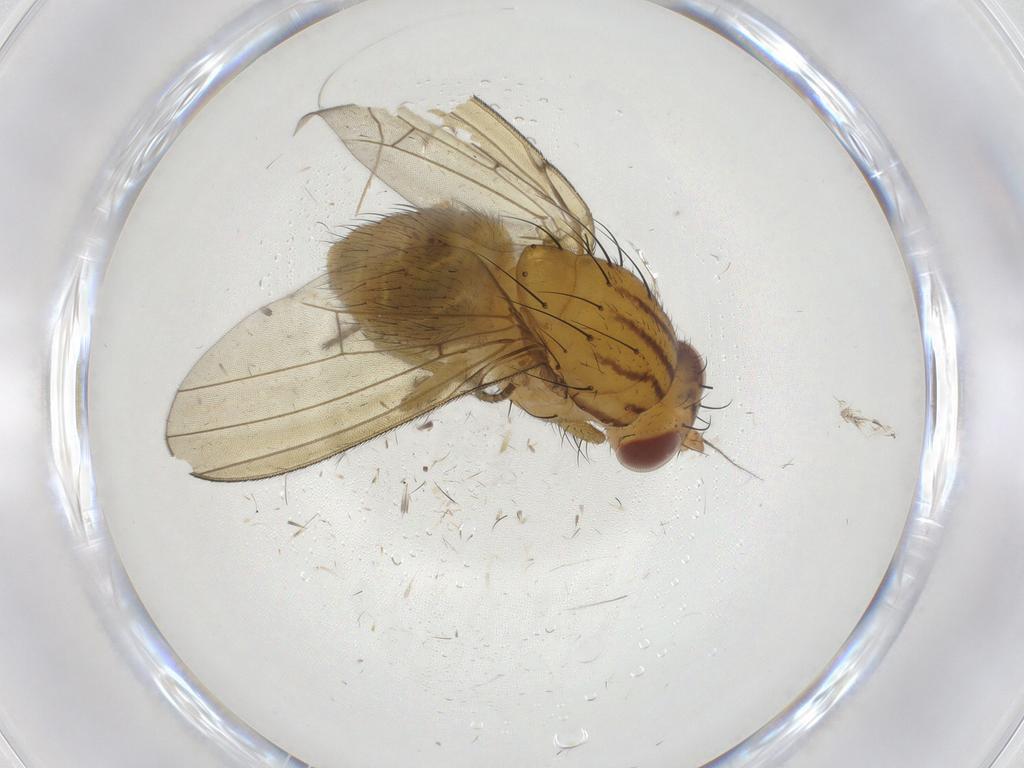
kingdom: Animalia
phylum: Arthropoda
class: Insecta
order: Diptera
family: Chironomidae
